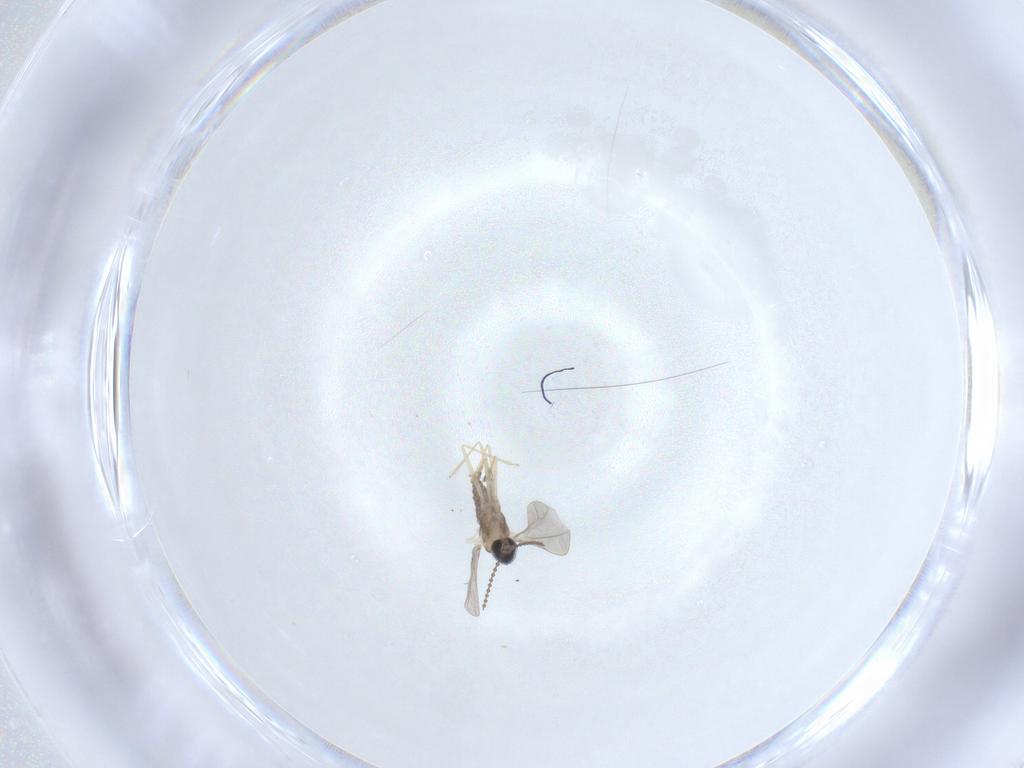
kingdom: Animalia
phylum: Arthropoda
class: Insecta
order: Diptera
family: Cecidomyiidae
